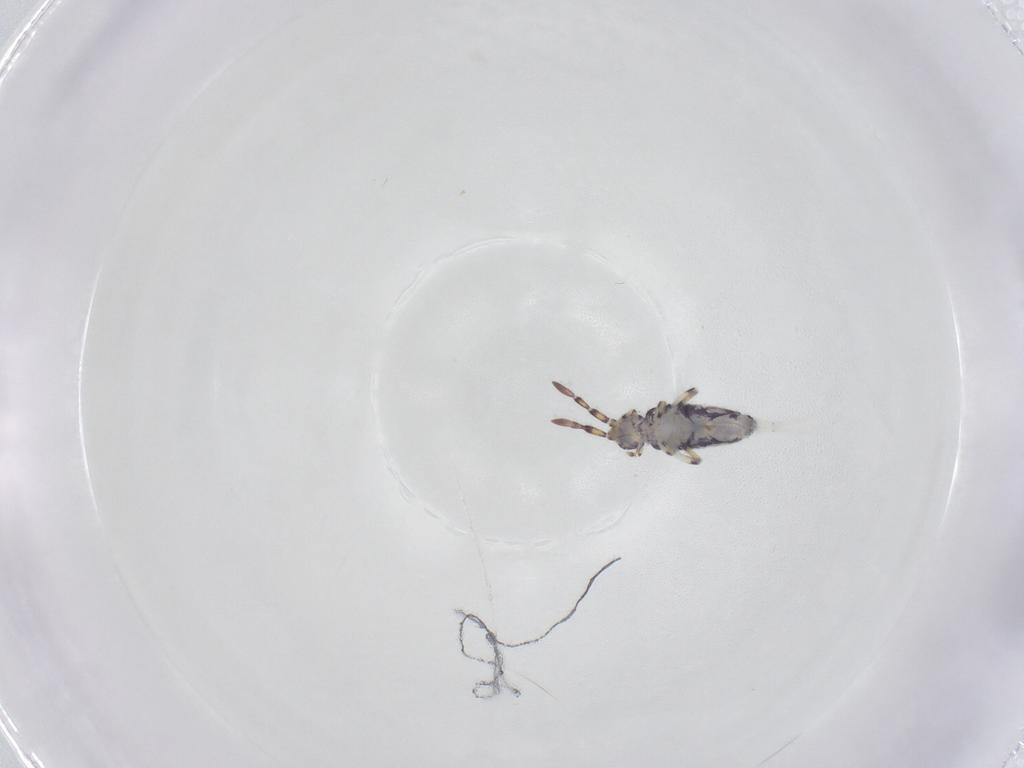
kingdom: Animalia
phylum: Arthropoda
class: Collembola
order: Entomobryomorpha
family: Entomobryidae
